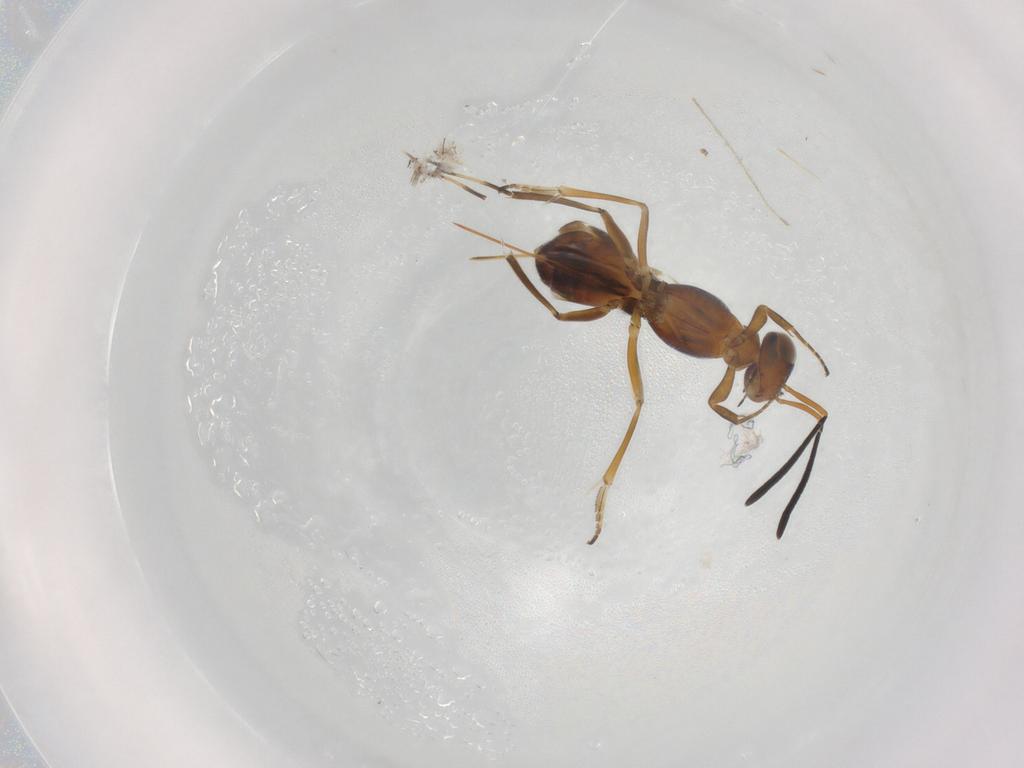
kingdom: Animalia
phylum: Arthropoda
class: Insecta
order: Hymenoptera
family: Eupelmidae
